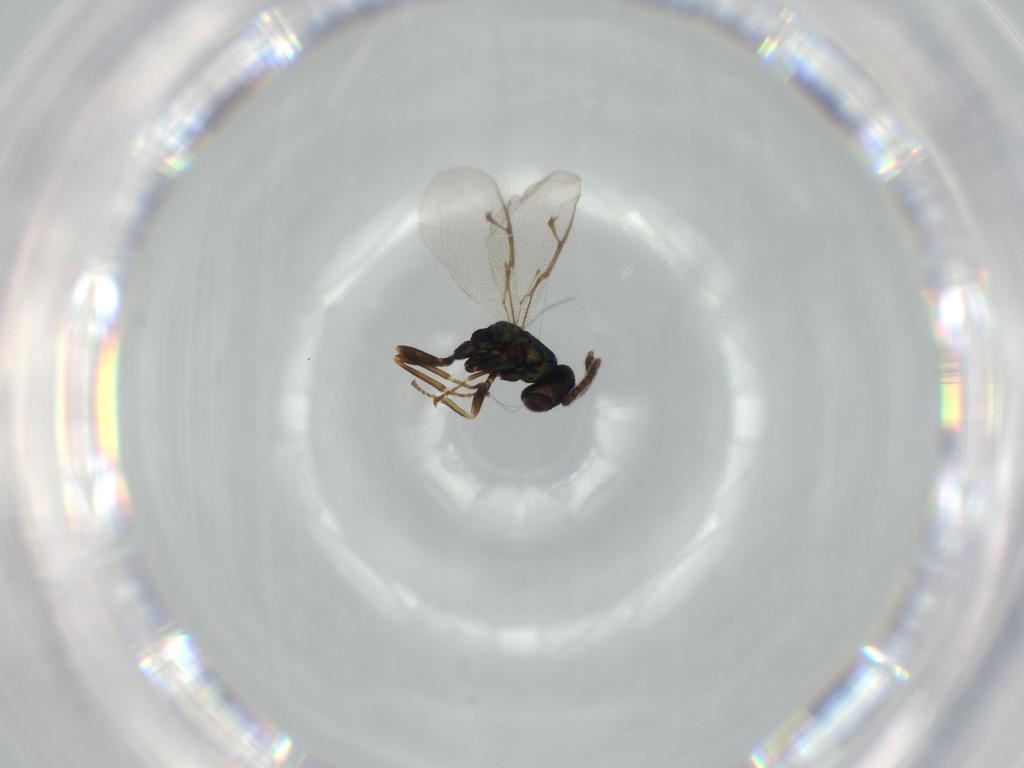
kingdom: Animalia
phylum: Arthropoda
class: Insecta
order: Hymenoptera
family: Pteromalidae
